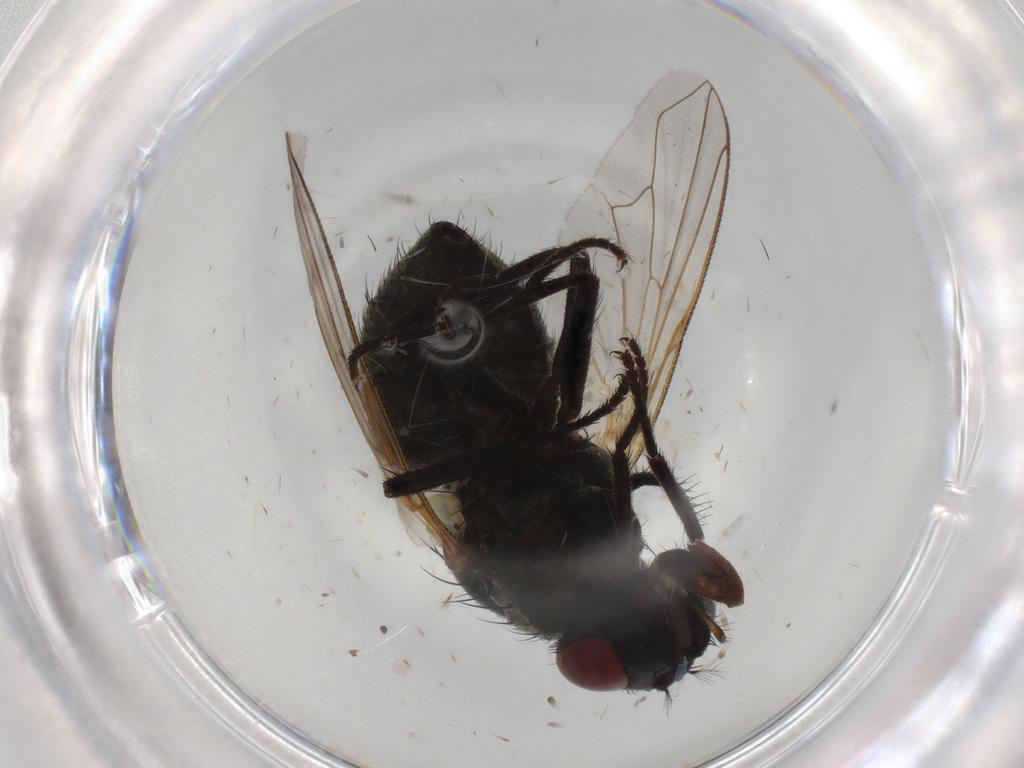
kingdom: Animalia
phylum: Arthropoda
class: Insecta
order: Diptera
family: Muscidae
